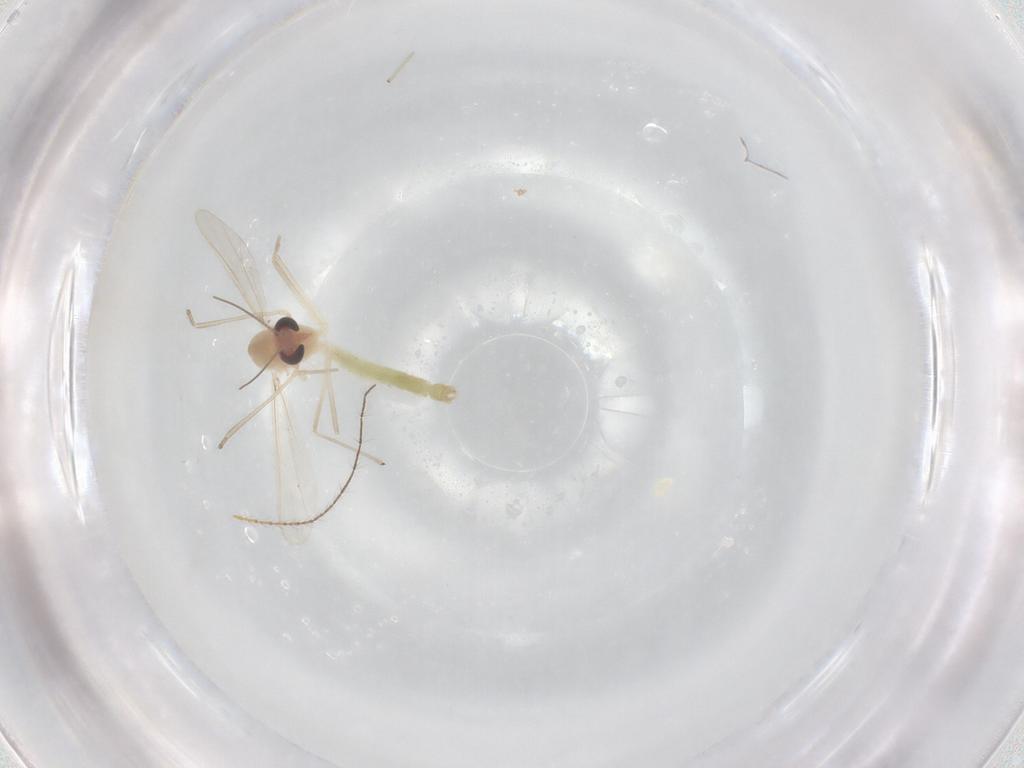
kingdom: Animalia
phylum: Arthropoda
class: Insecta
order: Diptera
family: Chironomidae
